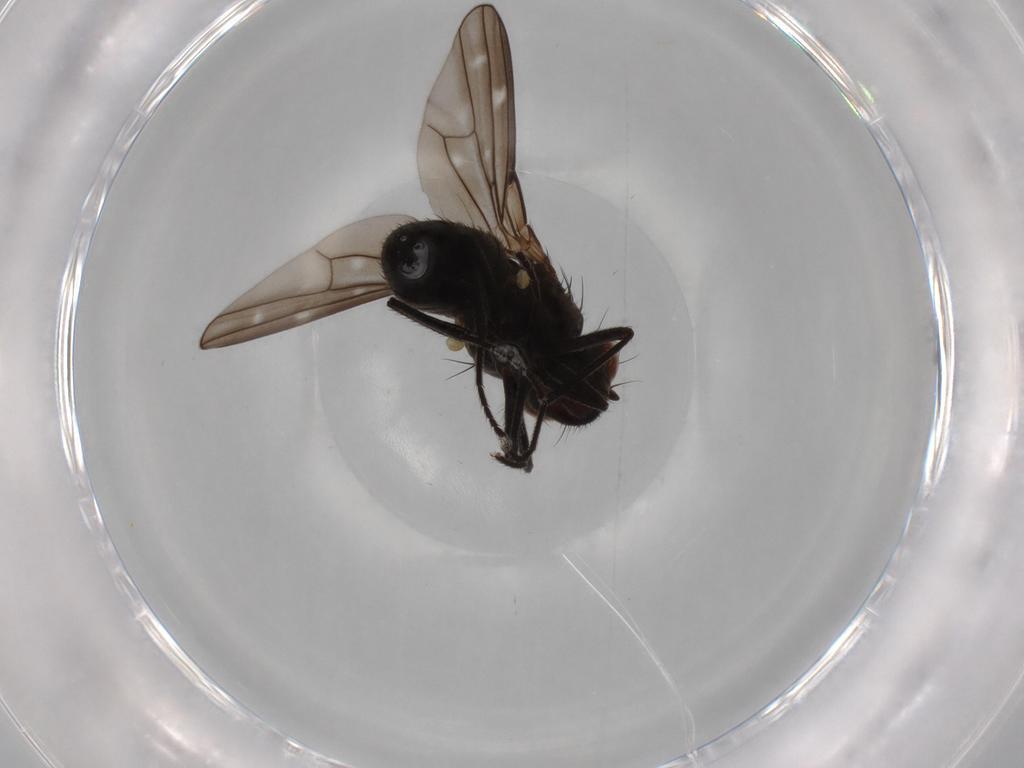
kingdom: Animalia
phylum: Arthropoda
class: Insecta
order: Diptera
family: Ephydridae
